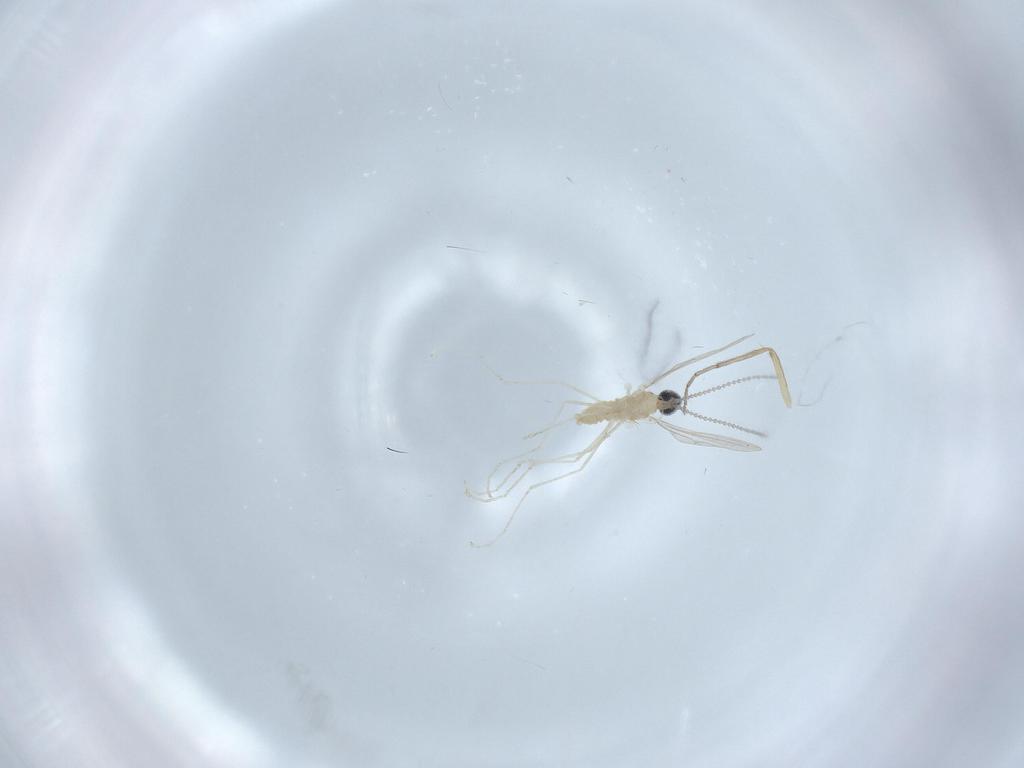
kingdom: Animalia
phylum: Arthropoda
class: Insecta
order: Diptera
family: Cecidomyiidae
